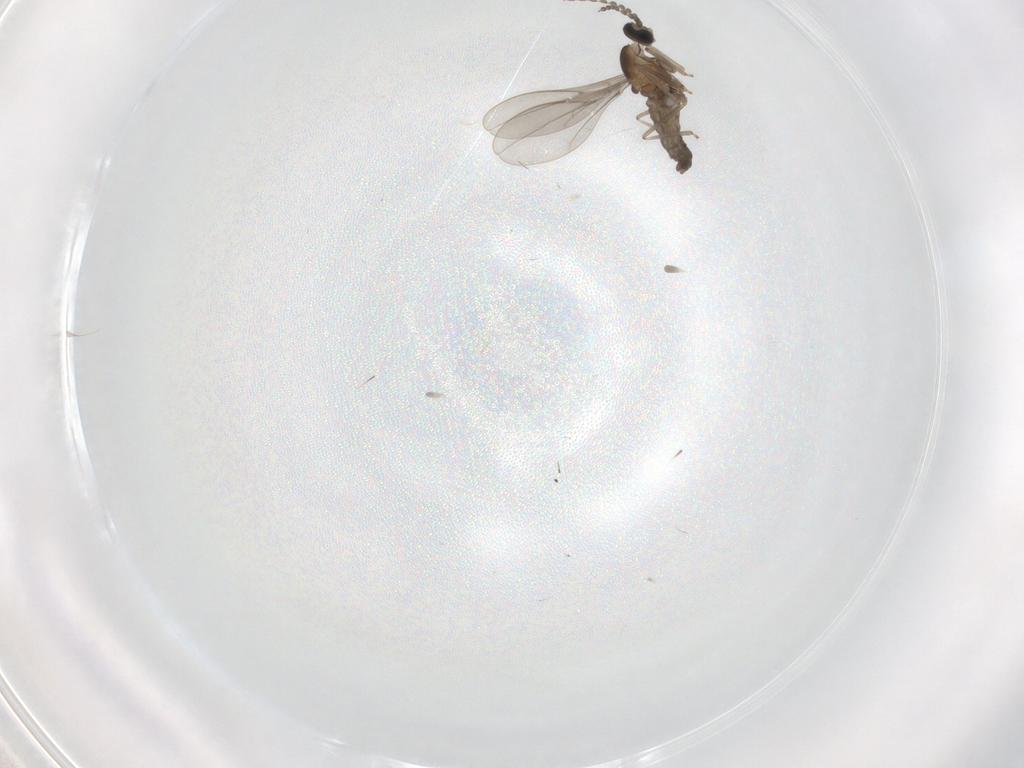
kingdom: Animalia
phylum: Arthropoda
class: Insecta
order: Diptera
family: Cecidomyiidae
